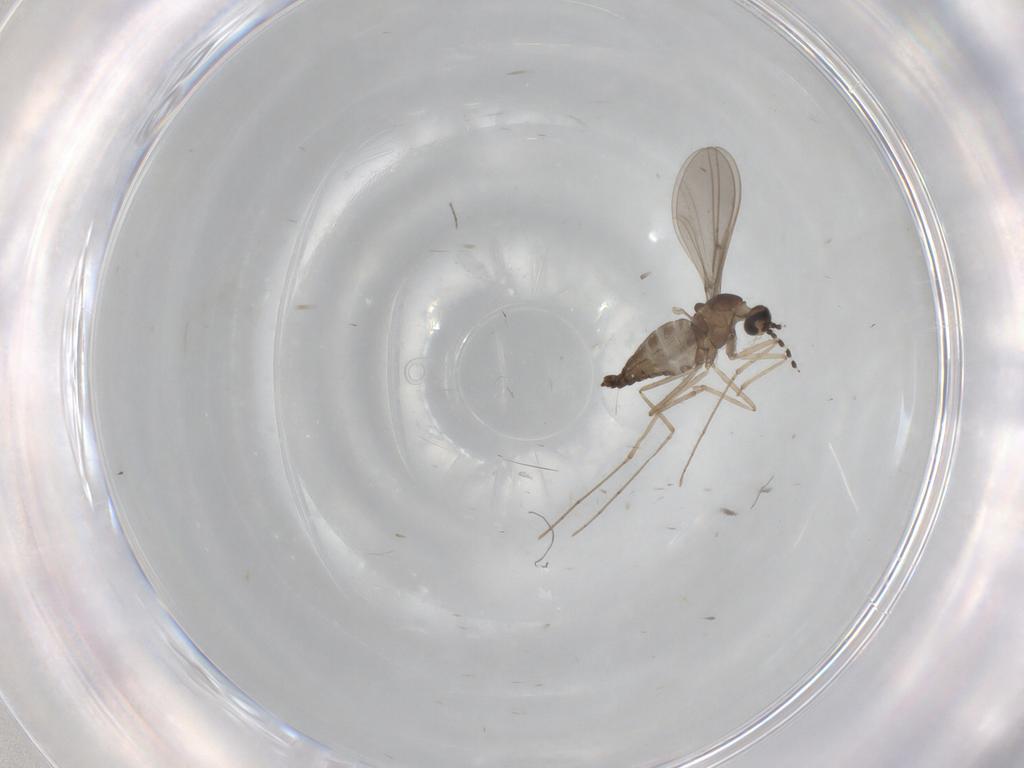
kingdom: Animalia
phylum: Arthropoda
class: Insecta
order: Diptera
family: Cecidomyiidae
